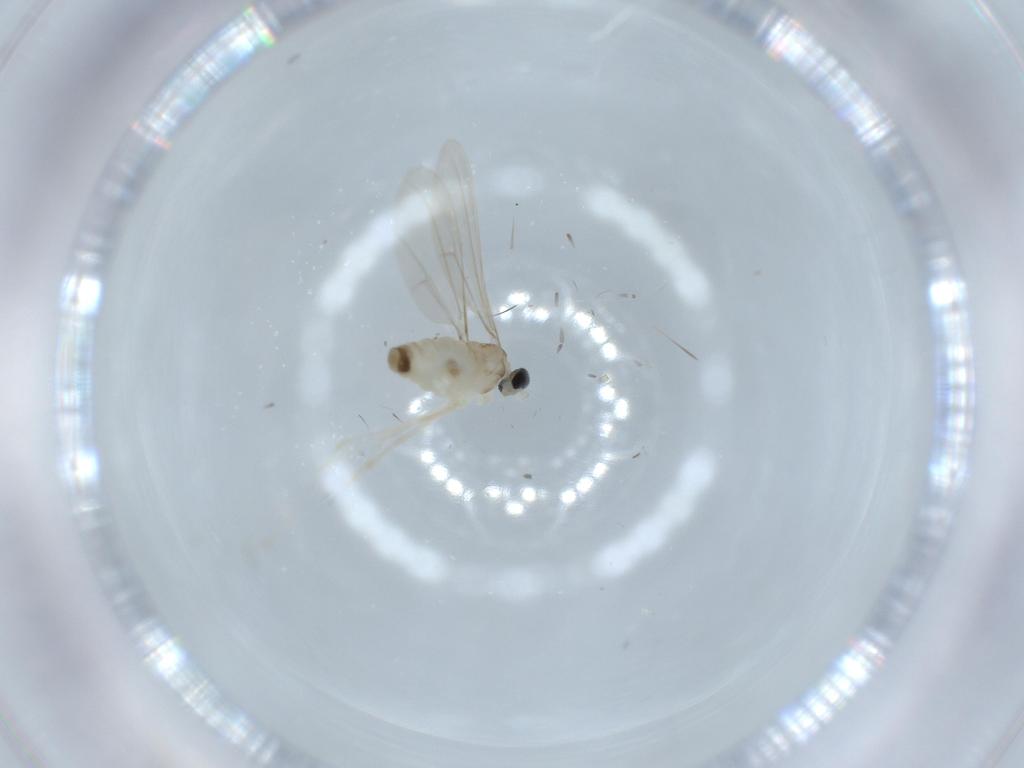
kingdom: Animalia
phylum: Arthropoda
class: Insecta
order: Diptera
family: Cecidomyiidae
